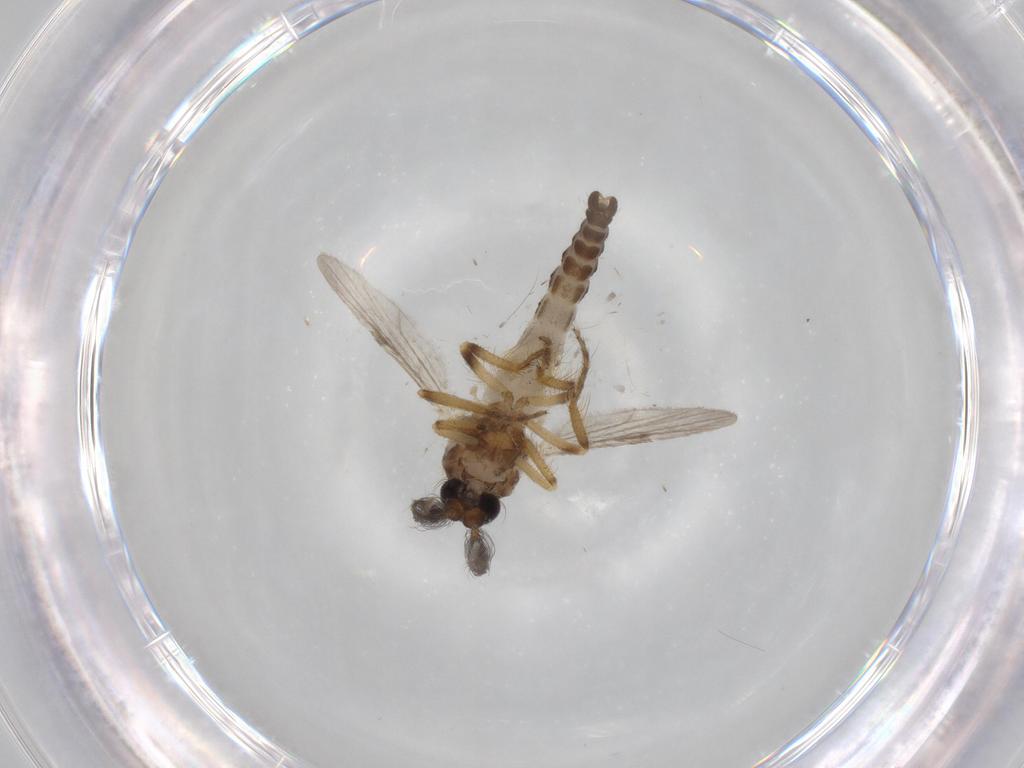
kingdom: Animalia
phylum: Arthropoda
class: Insecta
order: Diptera
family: Ceratopogonidae
